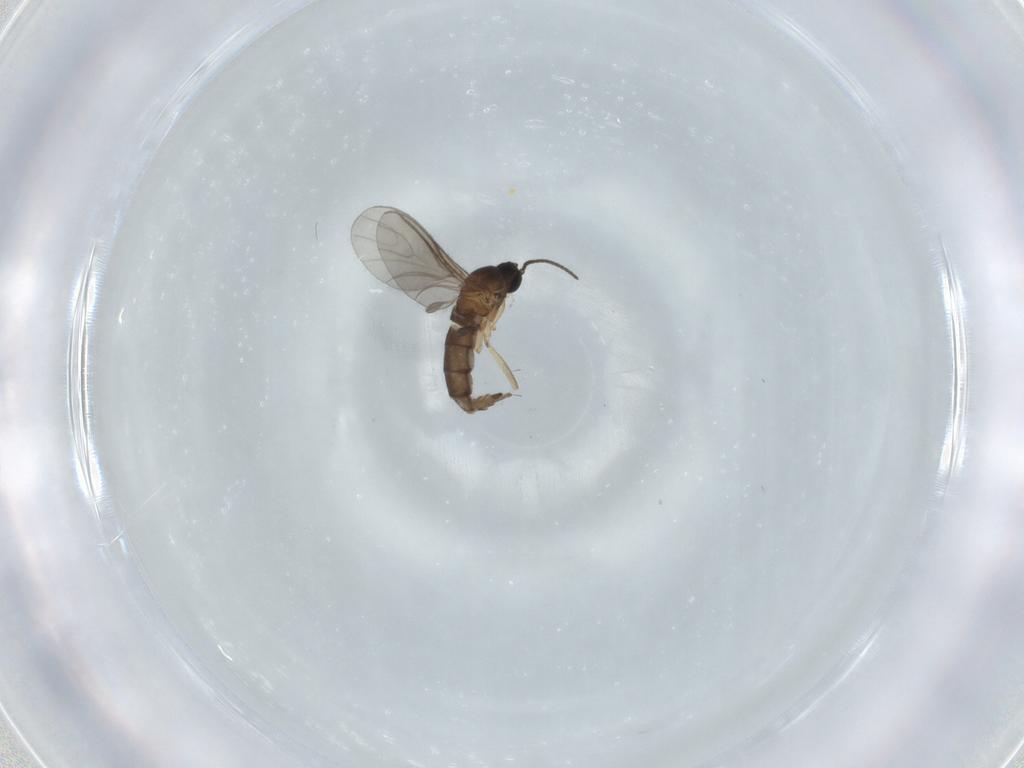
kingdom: Animalia
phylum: Arthropoda
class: Insecta
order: Diptera
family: Sciaridae
